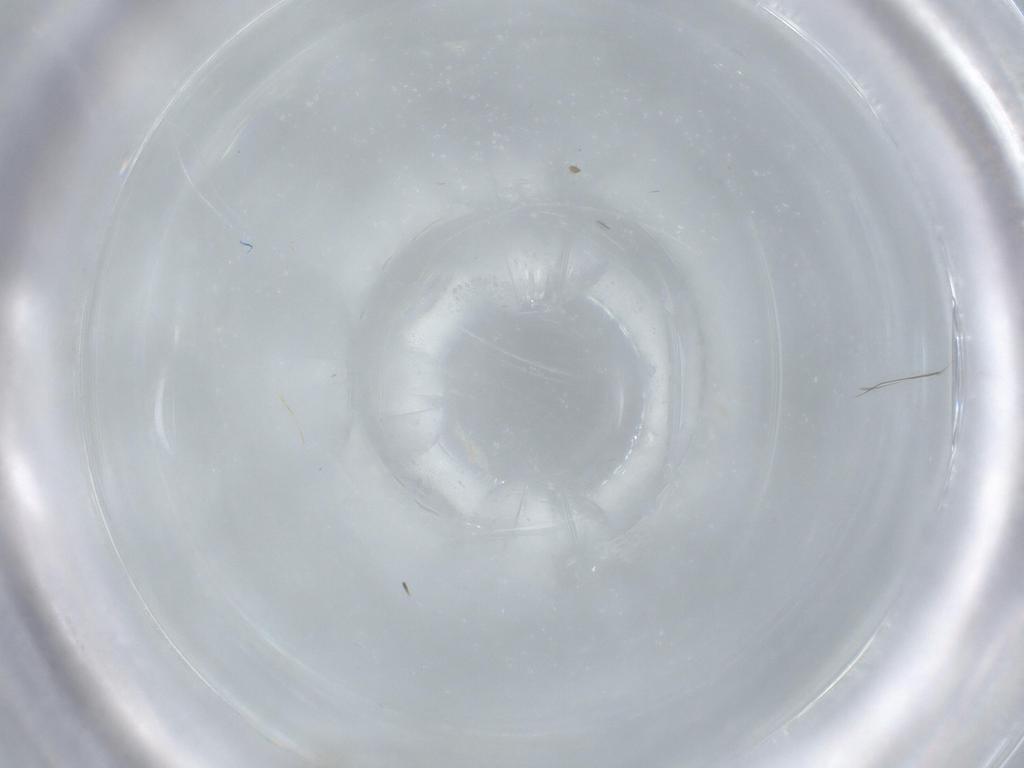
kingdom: Animalia
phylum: Arthropoda
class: Insecta
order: Diptera
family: Cecidomyiidae
